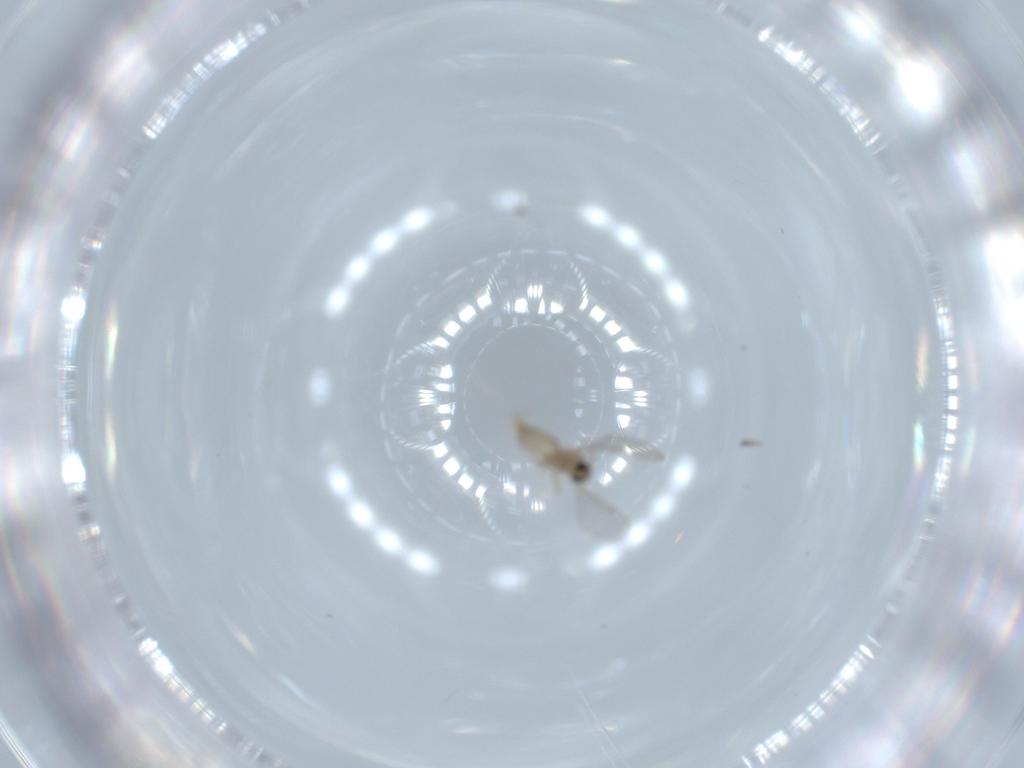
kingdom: Animalia
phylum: Arthropoda
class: Insecta
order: Diptera
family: Cecidomyiidae
